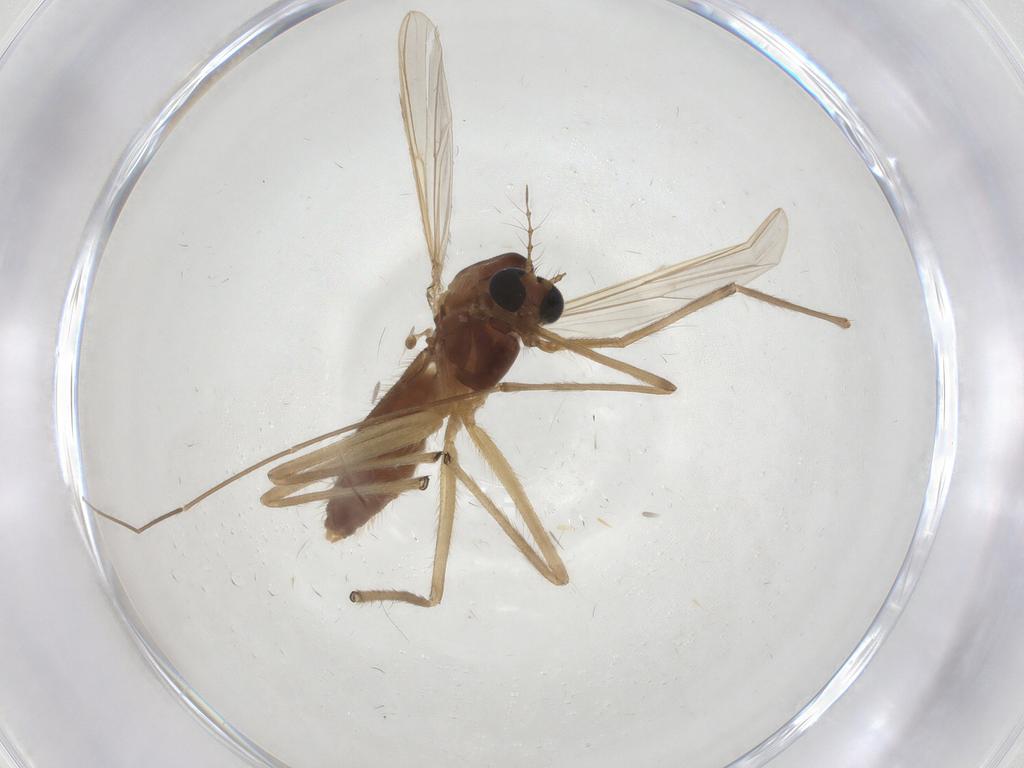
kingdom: Animalia
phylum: Arthropoda
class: Insecta
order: Diptera
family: Chironomidae
